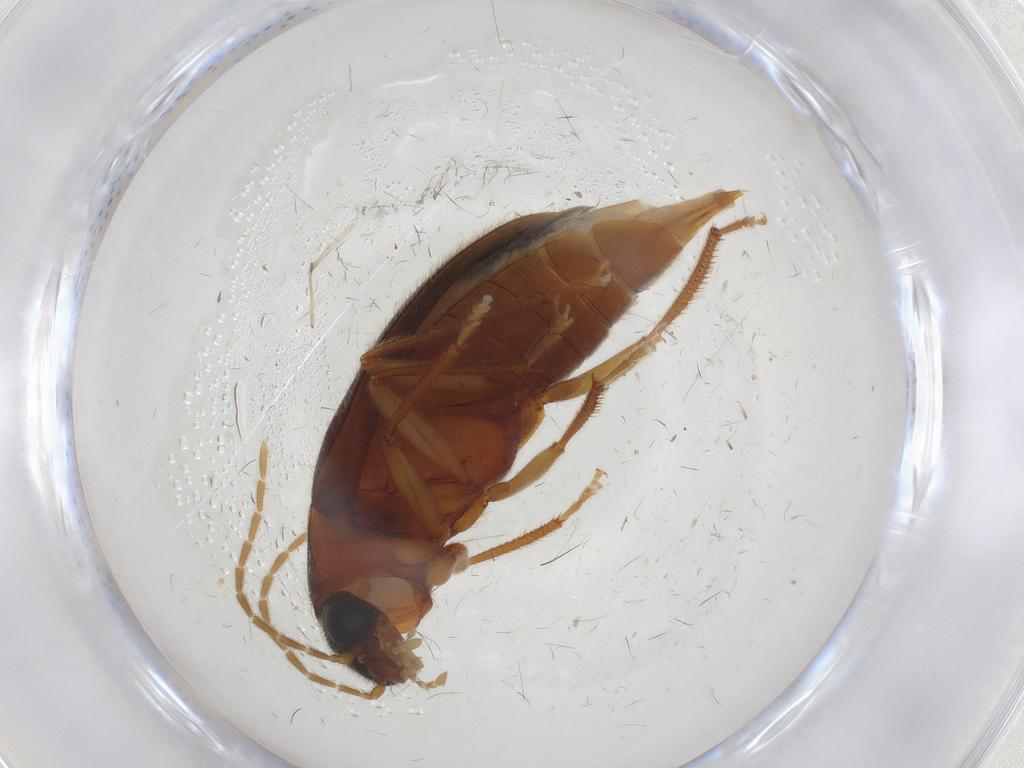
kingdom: Animalia
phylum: Arthropoda
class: Insecta
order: Coleoptera
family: Ptilodactylidae
